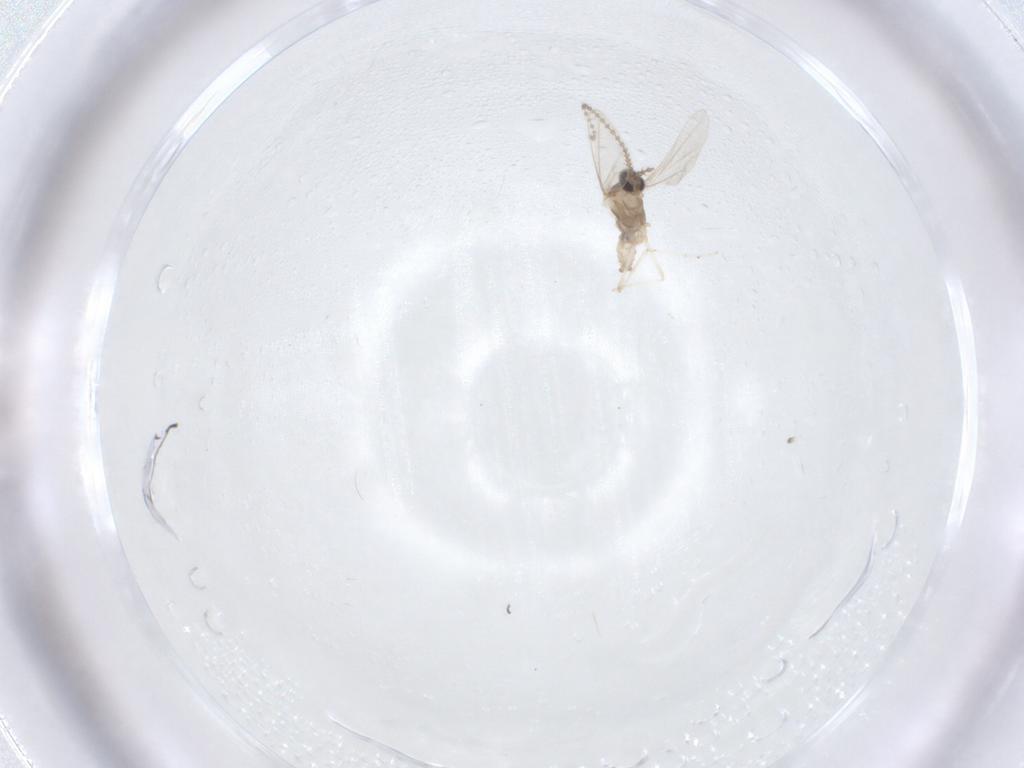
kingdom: Animalia
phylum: Arthropoda
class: Insecta
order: Diptera
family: Cecidomyiidae
